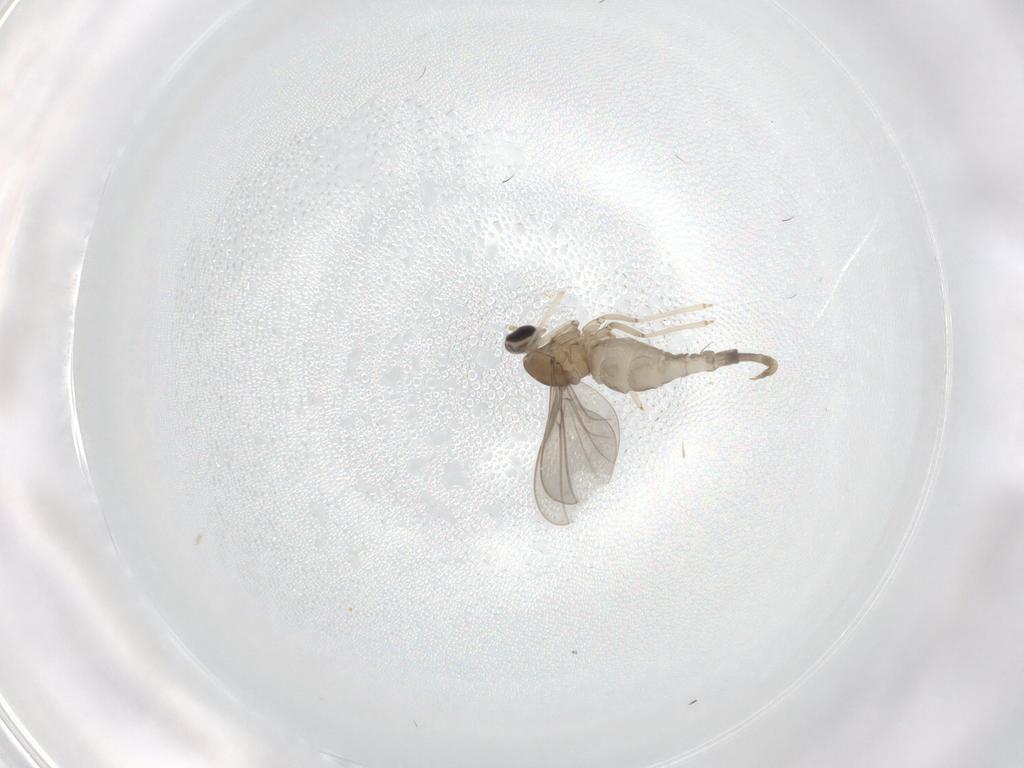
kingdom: Animalia
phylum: Arthropoda
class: Insecta
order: Diptera
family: Cecidomyiidae
